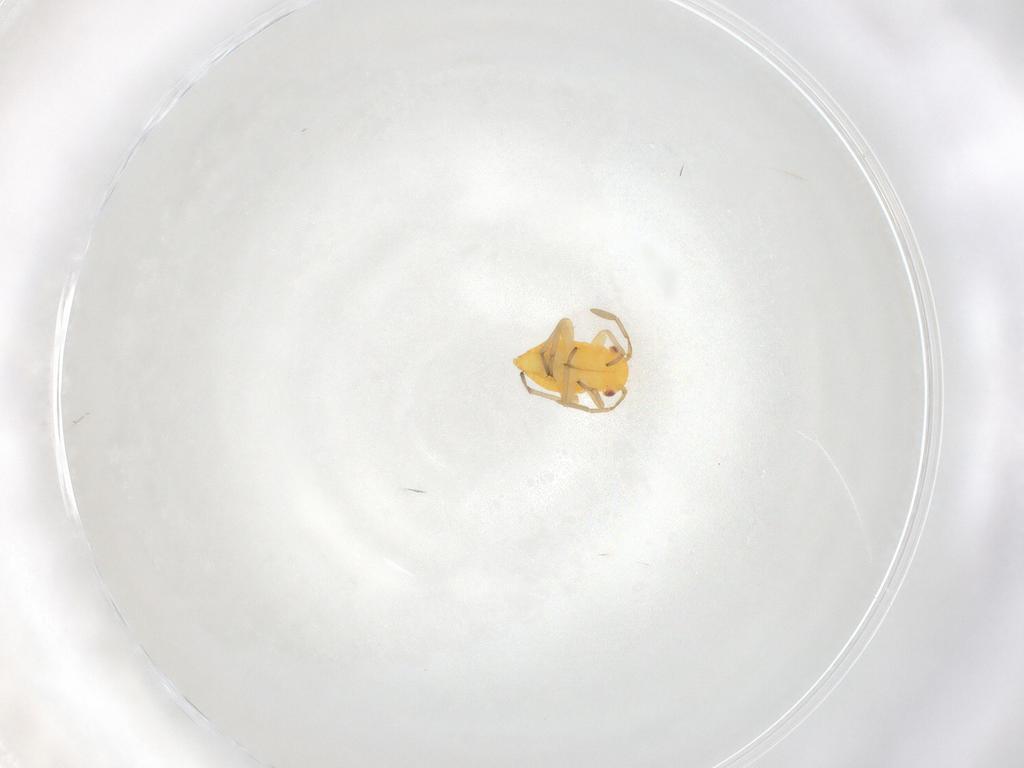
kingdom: Animalia
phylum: Arthropoda
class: Insecta
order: Hemiptera
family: Miridae
